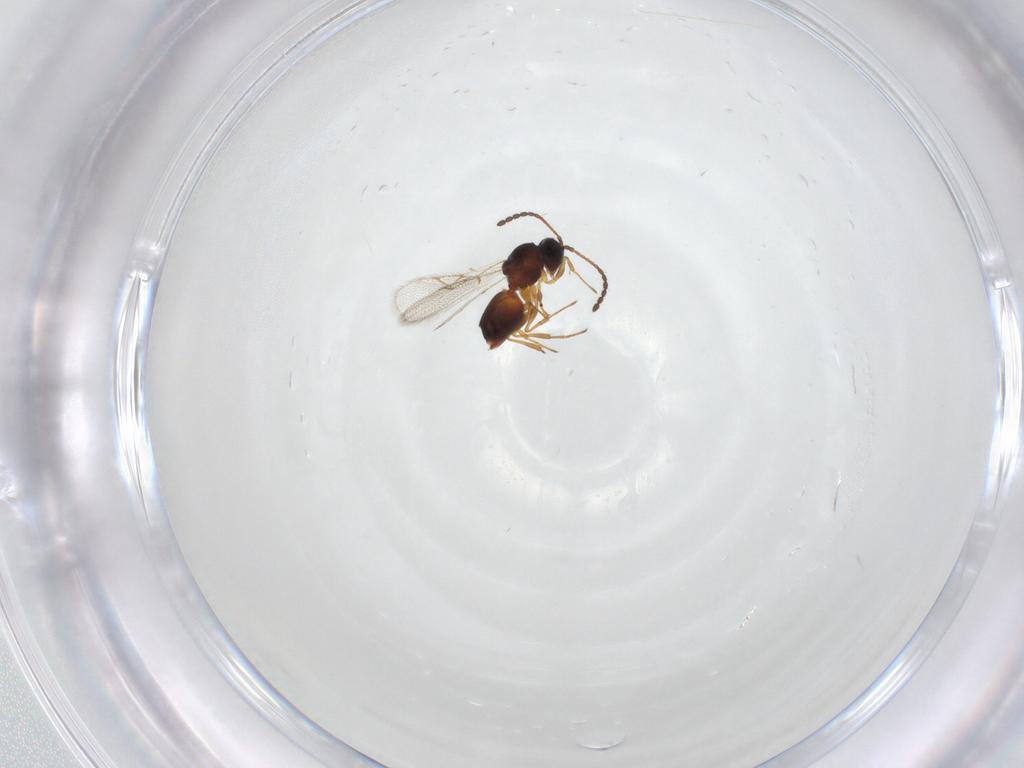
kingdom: Animalia
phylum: Arthropoda
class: Insecta
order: Hymenoptera
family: Figitidae
